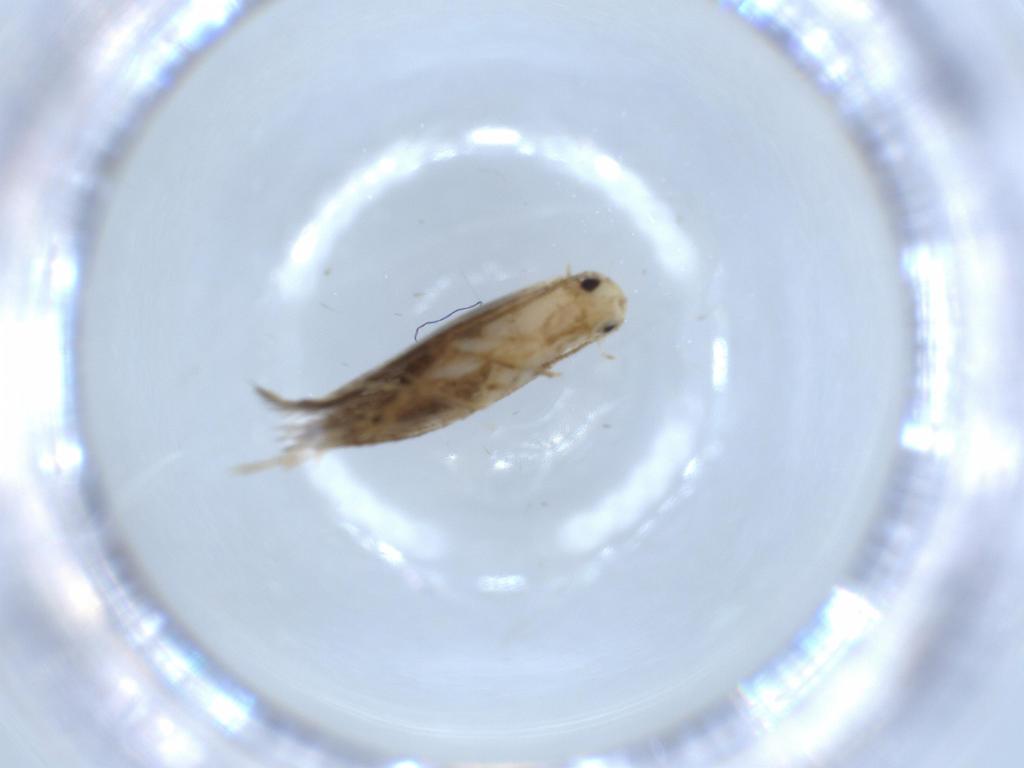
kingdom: Animalia
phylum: Arthropoda
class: Insecta
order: Lepidoptera
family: Tineidae
